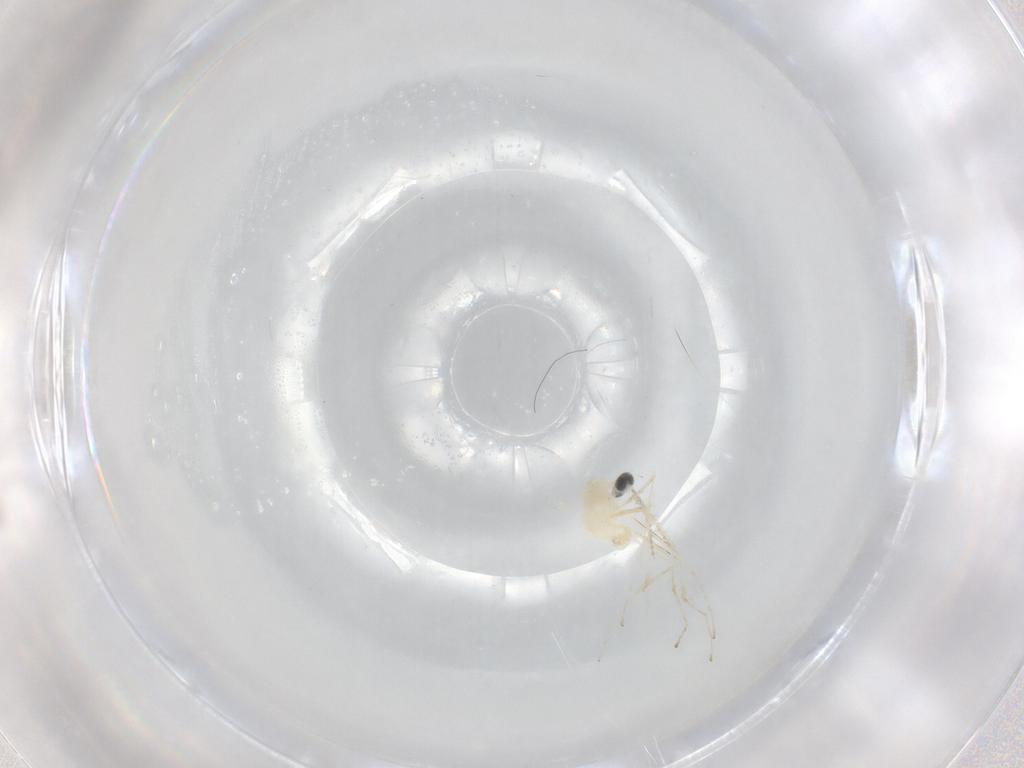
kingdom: Animalia
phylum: Arthropoda
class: Insecta
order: Diptera
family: Cecidomyiidae
